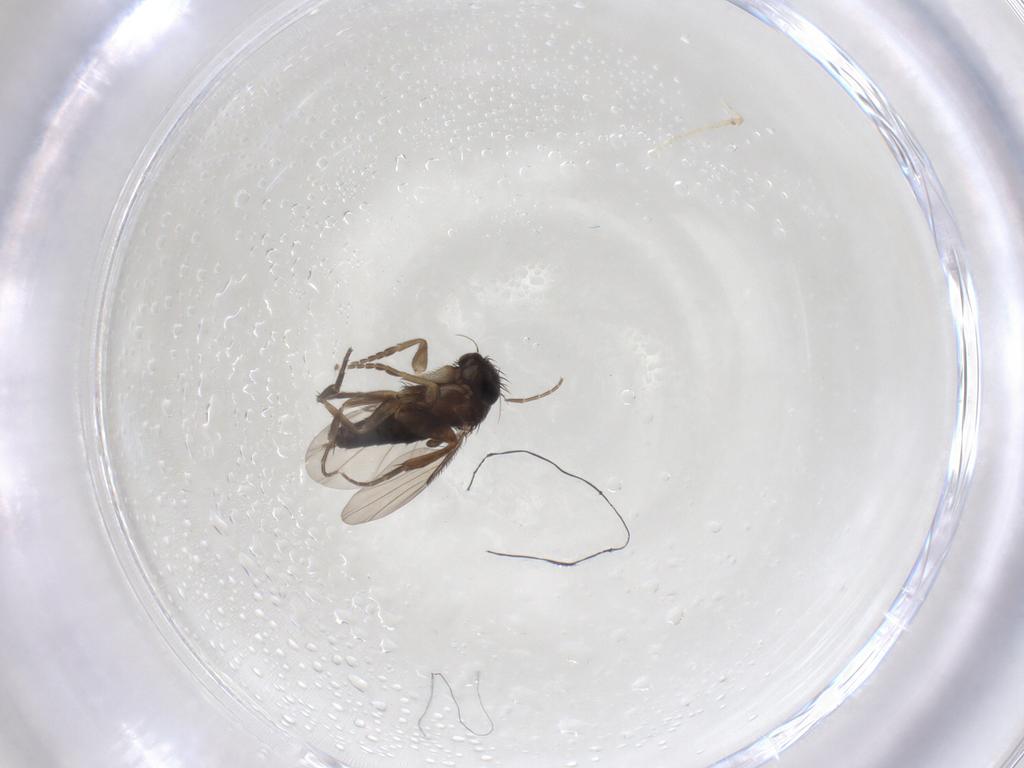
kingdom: Animalia
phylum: Arthropoda
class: Insecta
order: Diptera
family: Phoridae
